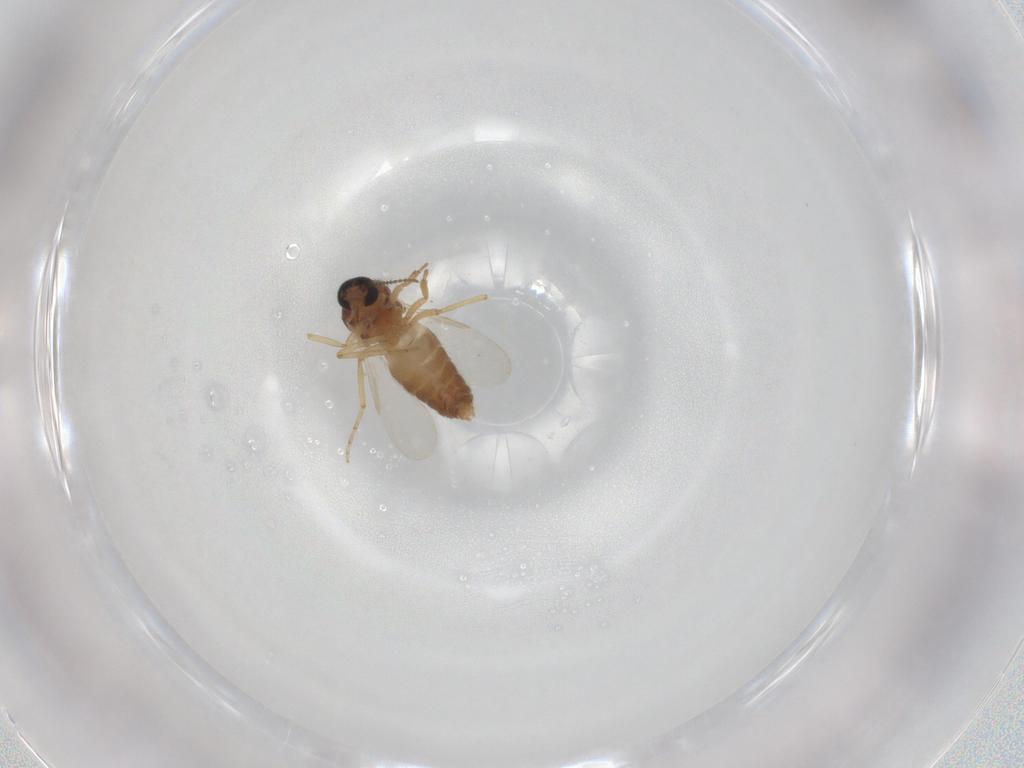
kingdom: Animalia
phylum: Arthropoda
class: Insecta
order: Diptera
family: Ceratopogonidae
